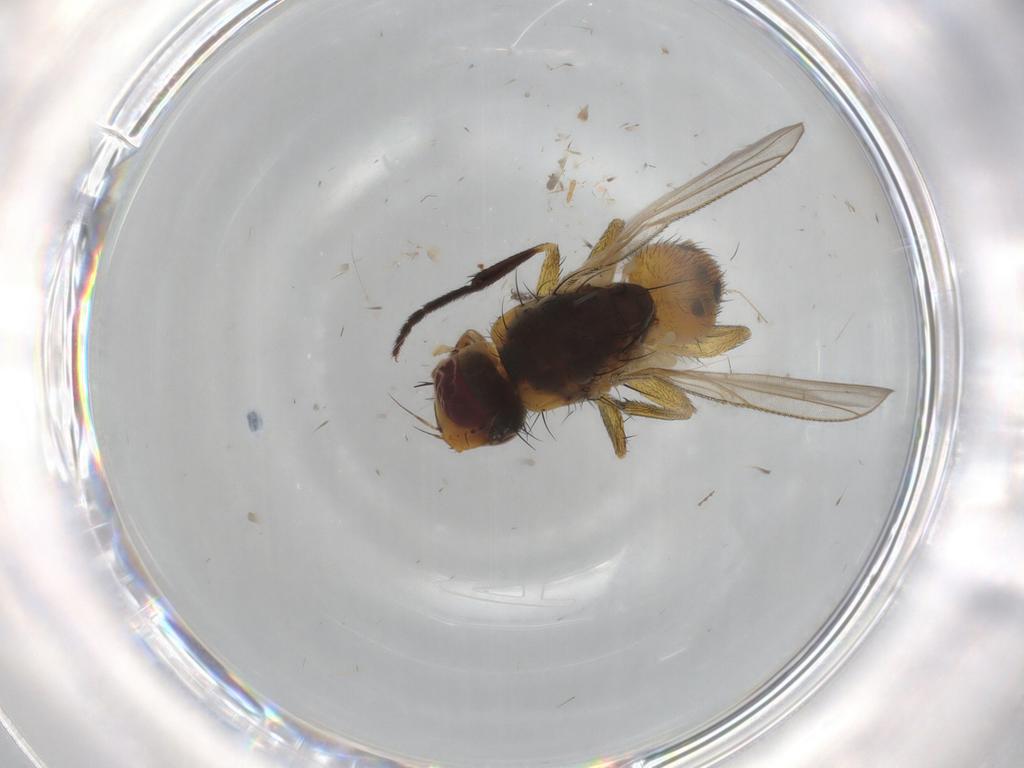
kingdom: Animalia
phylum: Arthropoda
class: Insecta
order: Diptera
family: Muscidae
